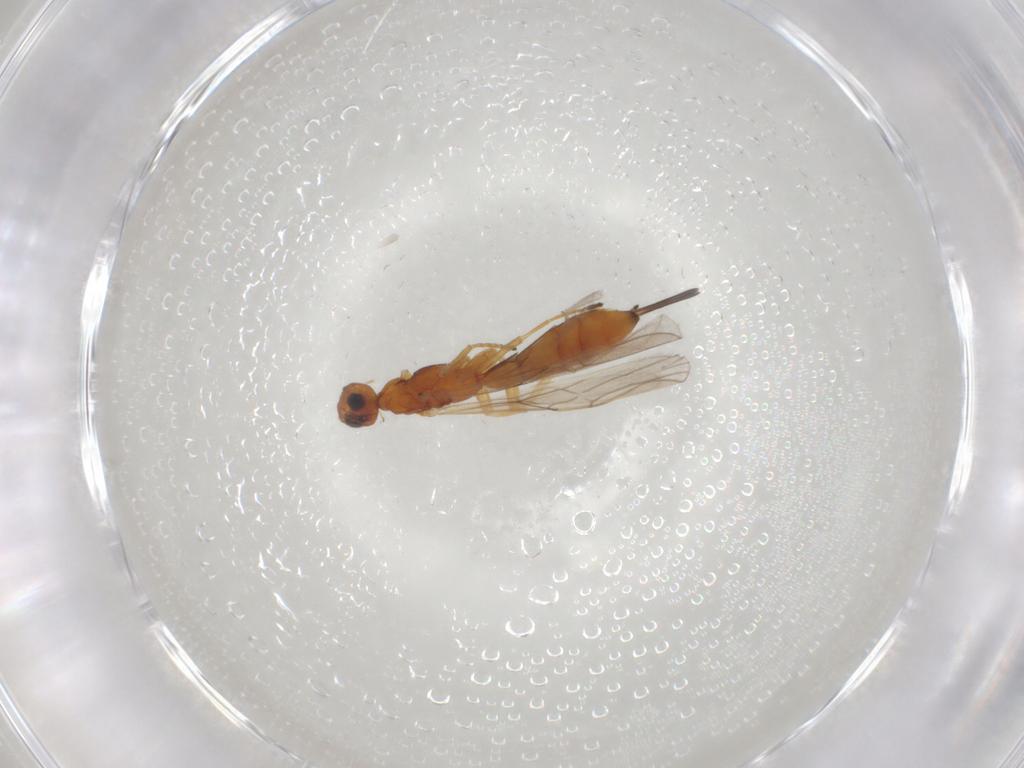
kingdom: Animalia
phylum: Arthropoda
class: Insecta
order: Hymenoptera
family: Braconidae
